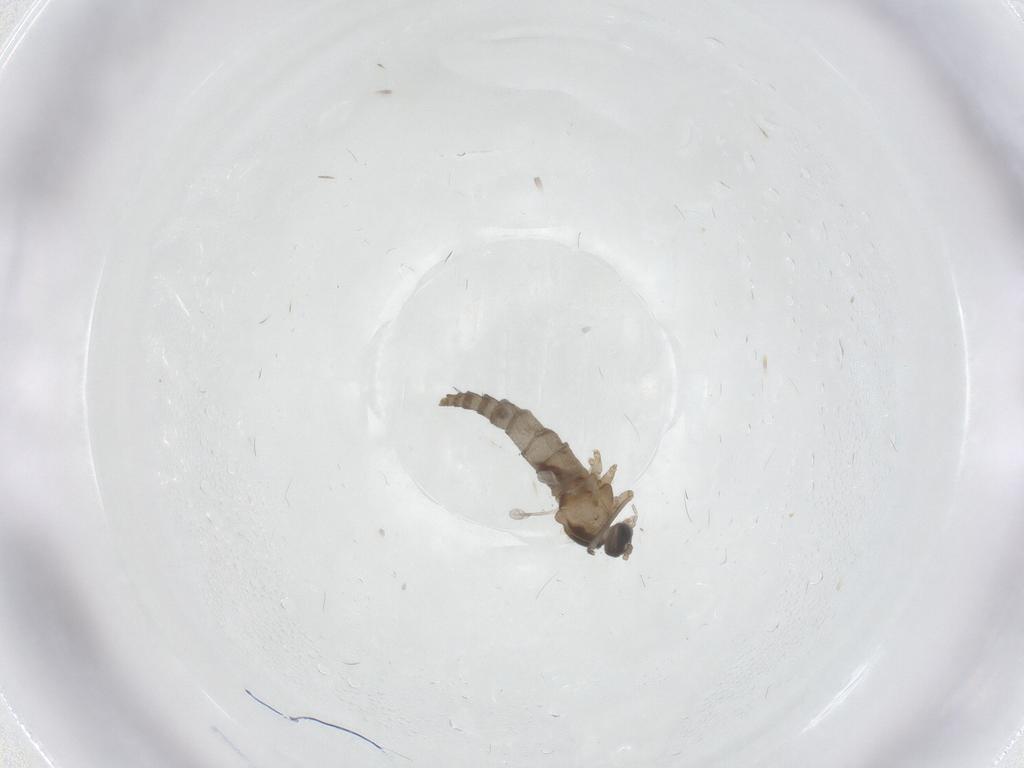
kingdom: Animalia
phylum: Arthropoda
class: Insecta
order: Diptera
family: Cecidomyiidae
